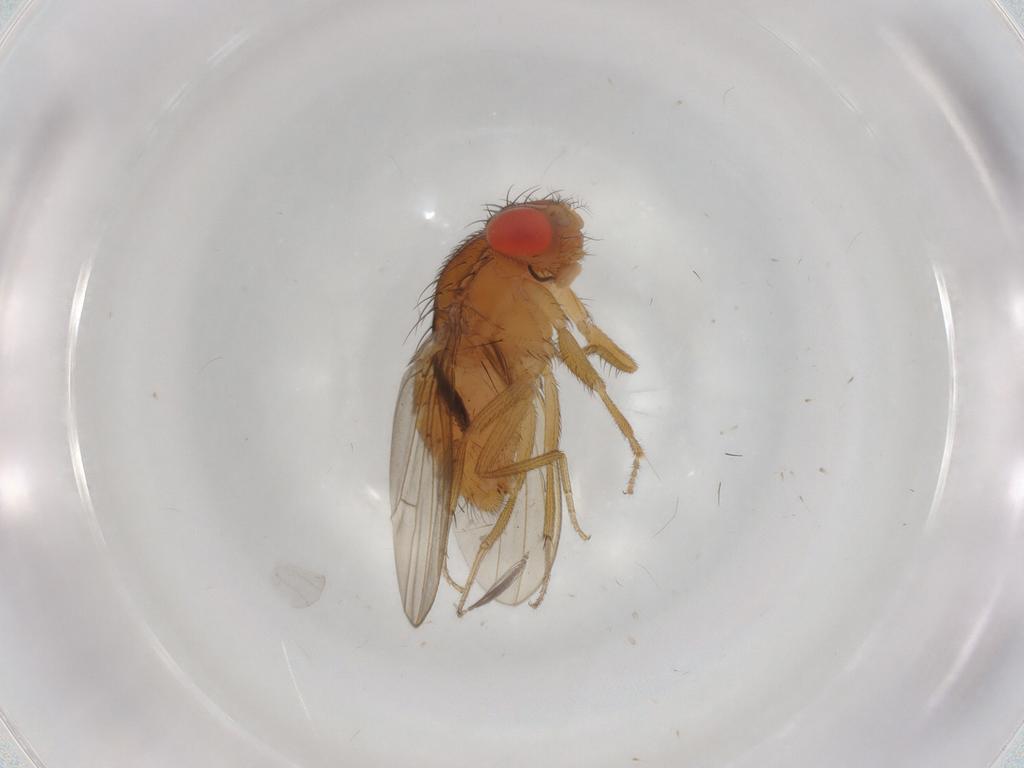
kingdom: Animalia
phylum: Arthropoda
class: Insecta
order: Diptera
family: Drosophilidae
